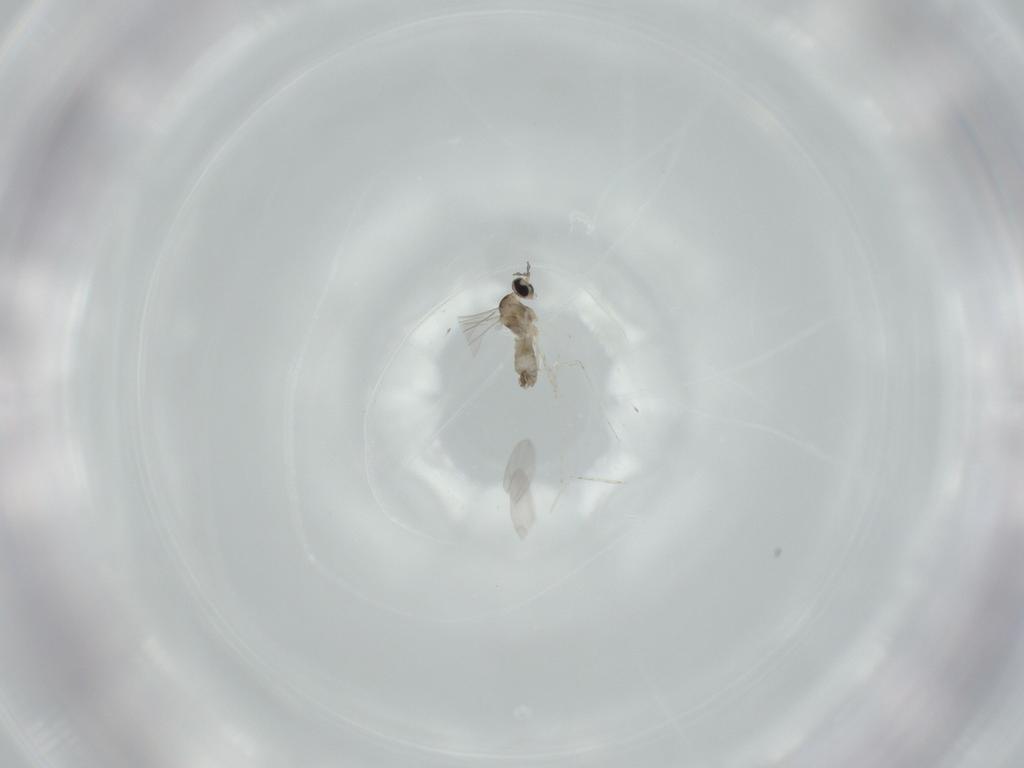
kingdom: Animalia
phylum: Arthropoda
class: Insecta
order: Diptera
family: Cecidomyiidae
